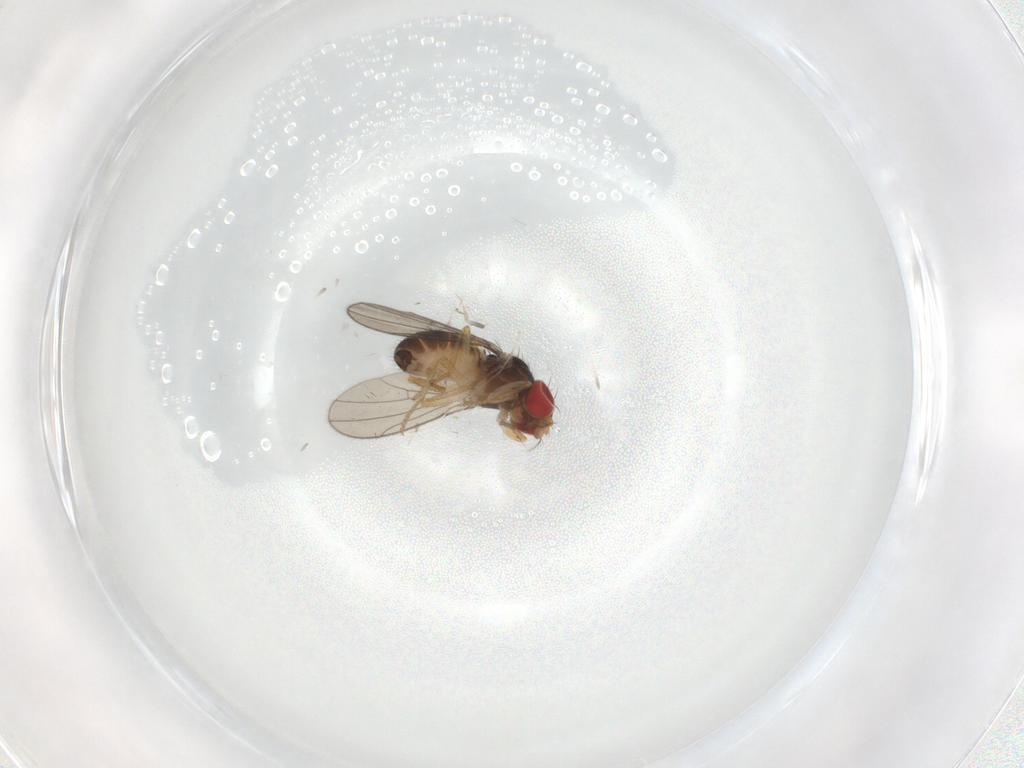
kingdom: Animalia
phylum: Arthropoda
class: Insecta
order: Diptera
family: Drosophilidae
